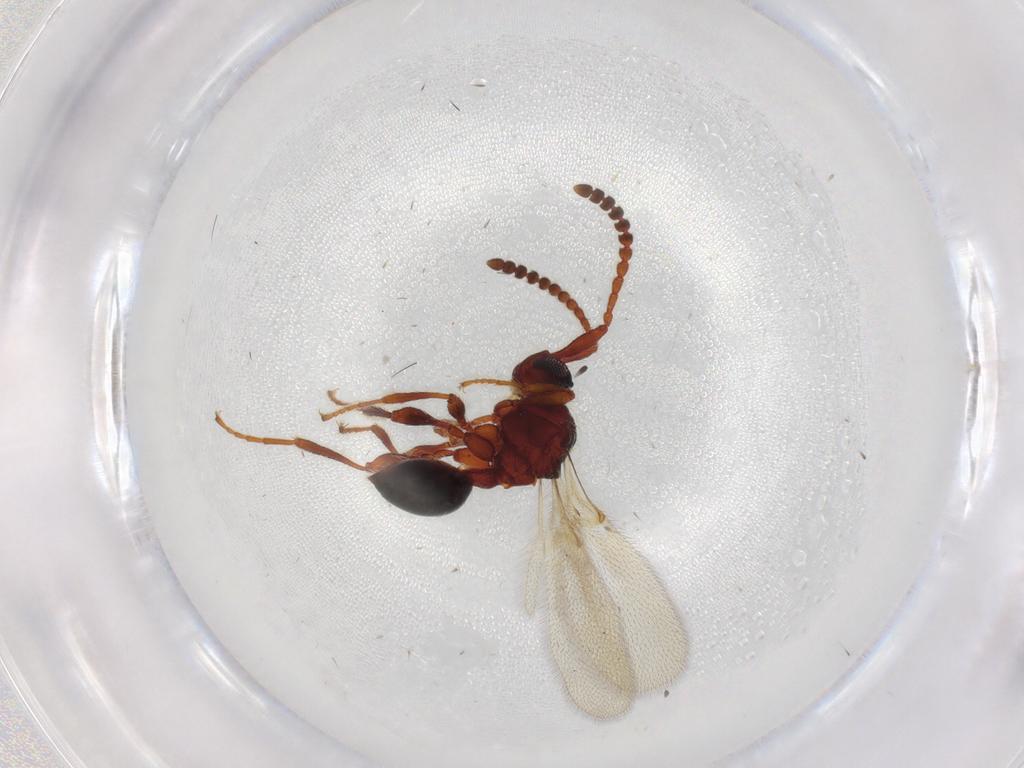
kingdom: Animalia
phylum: Arthropoda
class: Insecta
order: Hymenoptera
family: Diapriidae
